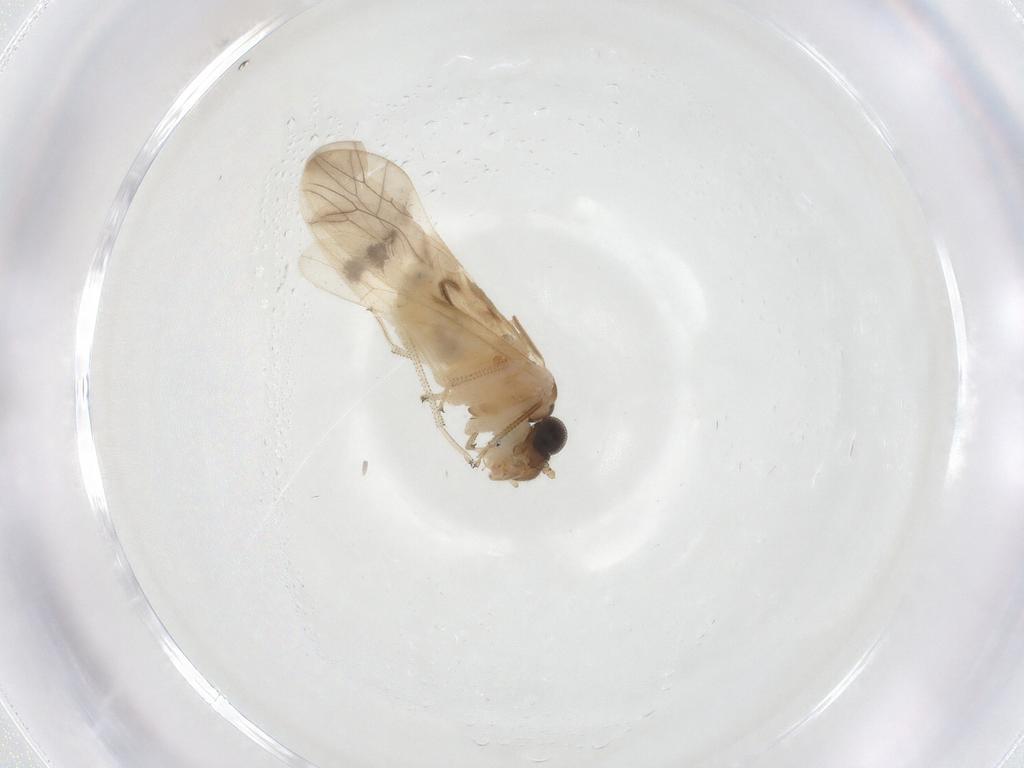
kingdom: Animalia
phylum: Arthropoda
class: Insecta
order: Psocodea
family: Caeciliusidae
